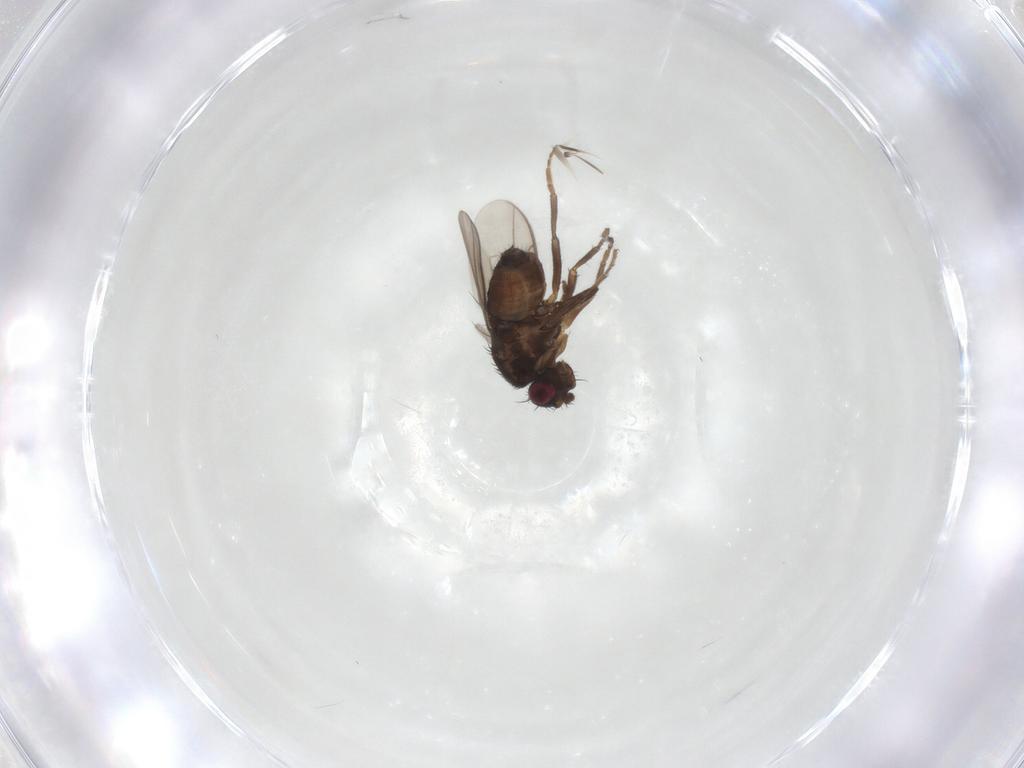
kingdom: Animalia
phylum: Arthropoda
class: Insecta
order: Diptera
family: Sphaeroceridae
